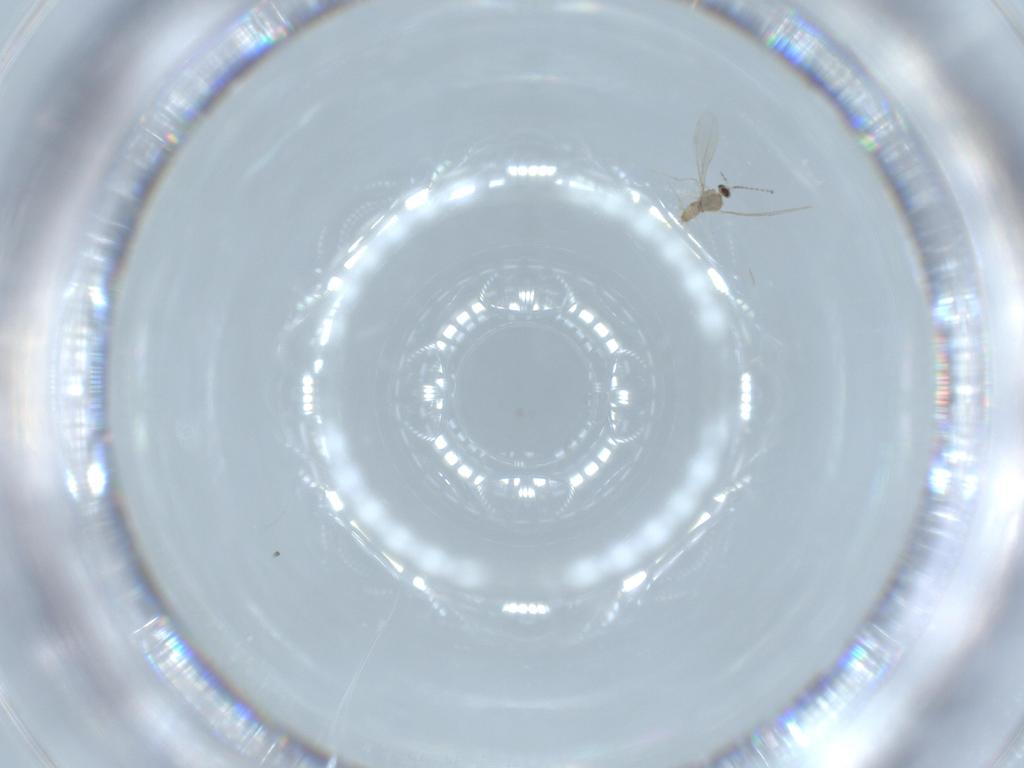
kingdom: Animalia
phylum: Arthropoda
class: Insecta
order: Diptera
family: Cecidomyiidae
